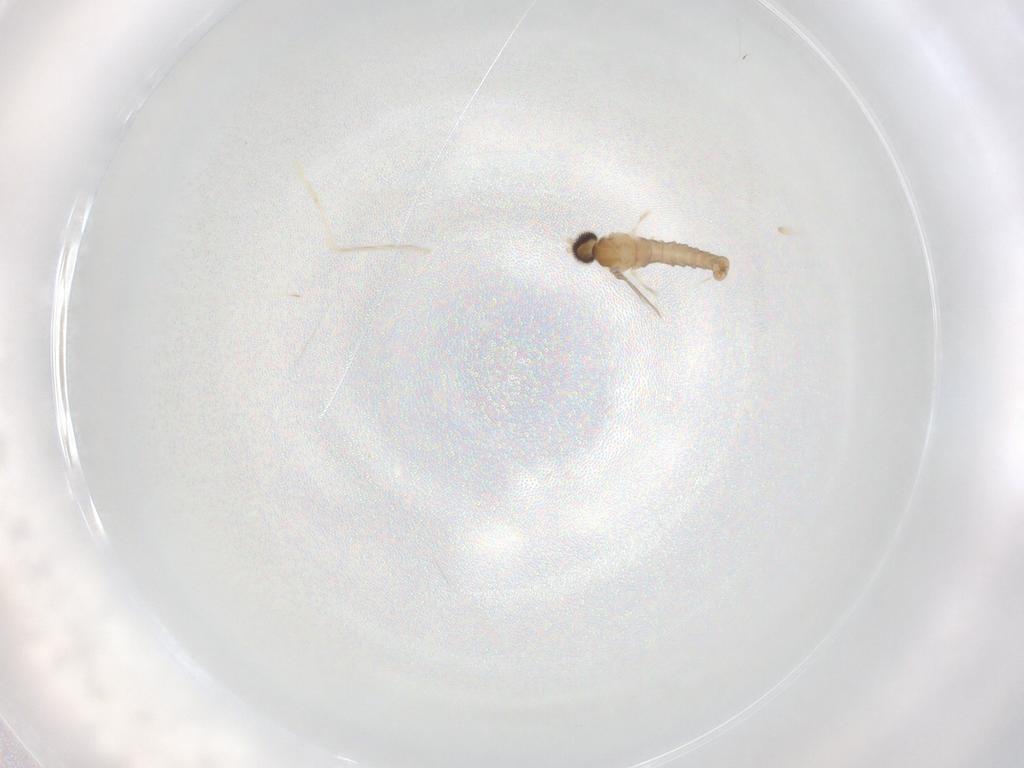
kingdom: Animalia
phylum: Arthropoda
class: Insecta
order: Diptera
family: Cecidomyiidae
